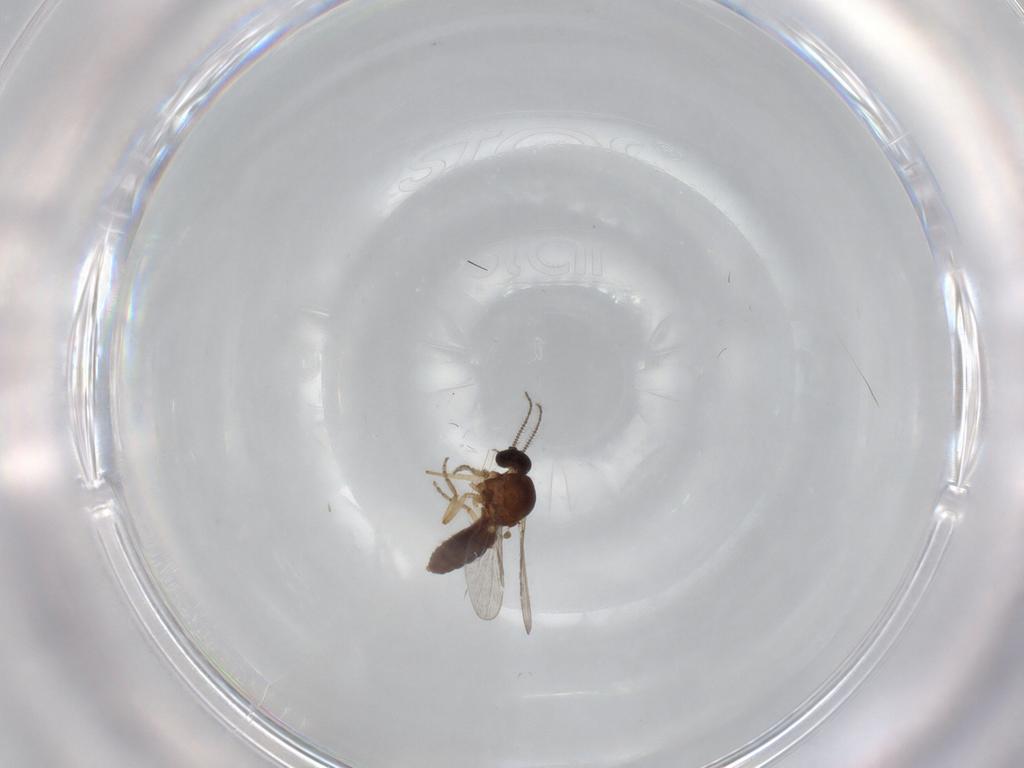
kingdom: Animalia
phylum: Arthropoda
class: Insecta
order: Diptera
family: Ceratopogonidae
